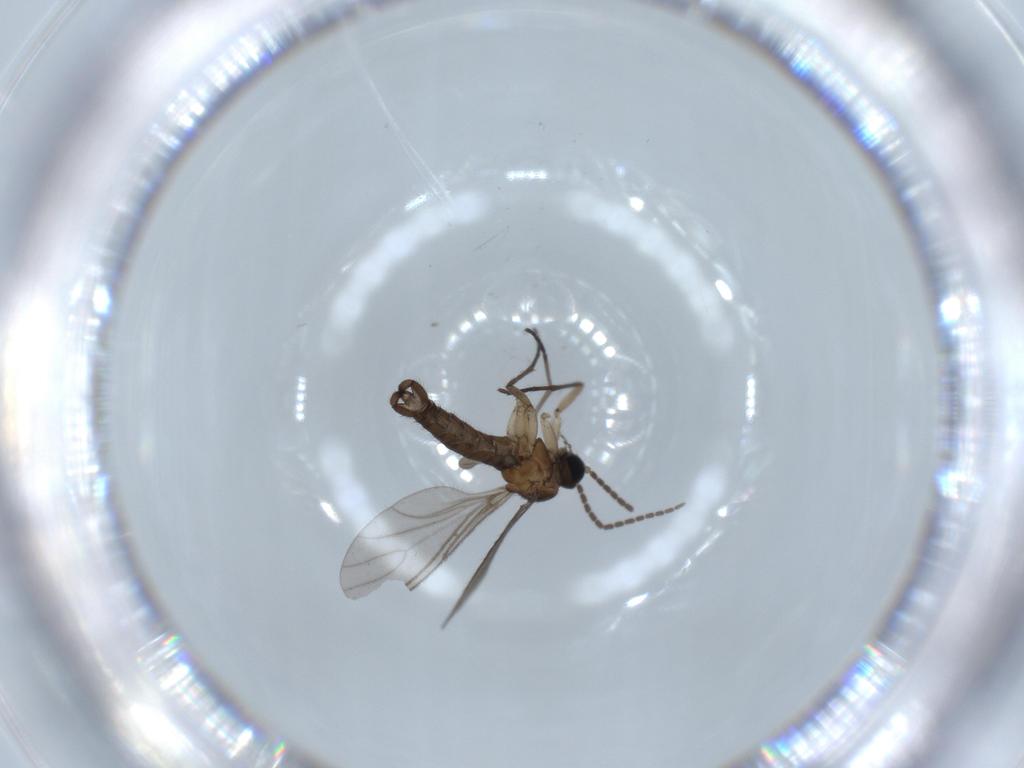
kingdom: Animalia
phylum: Arthropoda
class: Insecta
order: Diptera
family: Sciaridae
